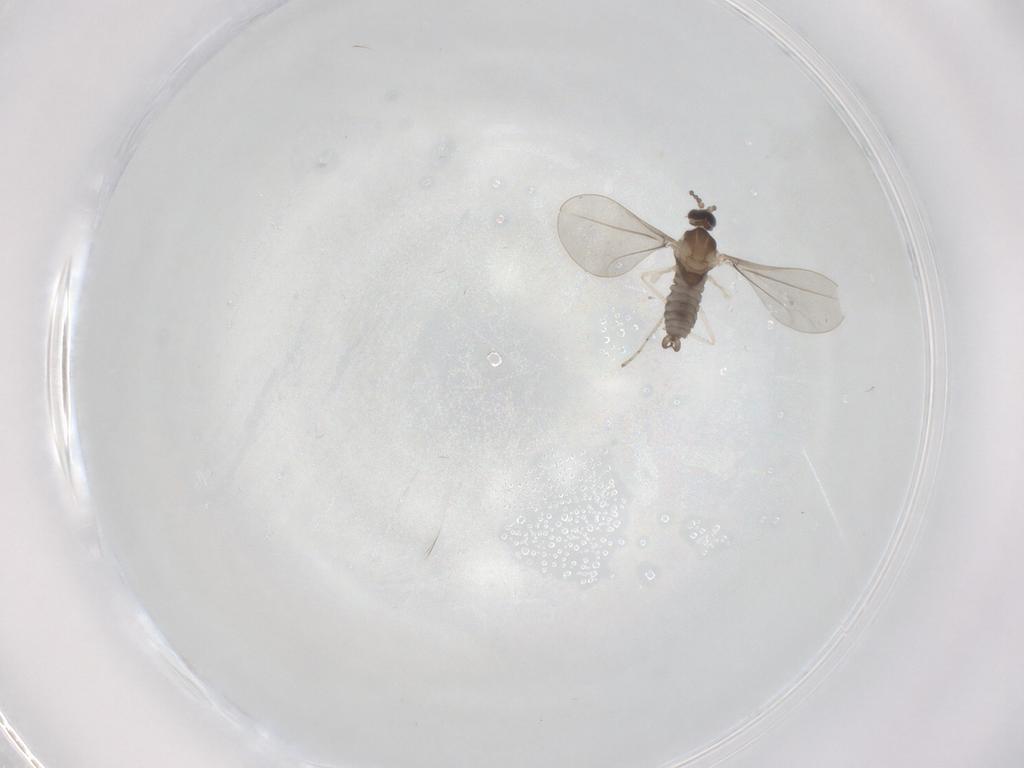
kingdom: Animalia
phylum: Arthropoda
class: Insecta
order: Diptera
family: Cecidomyiidae
